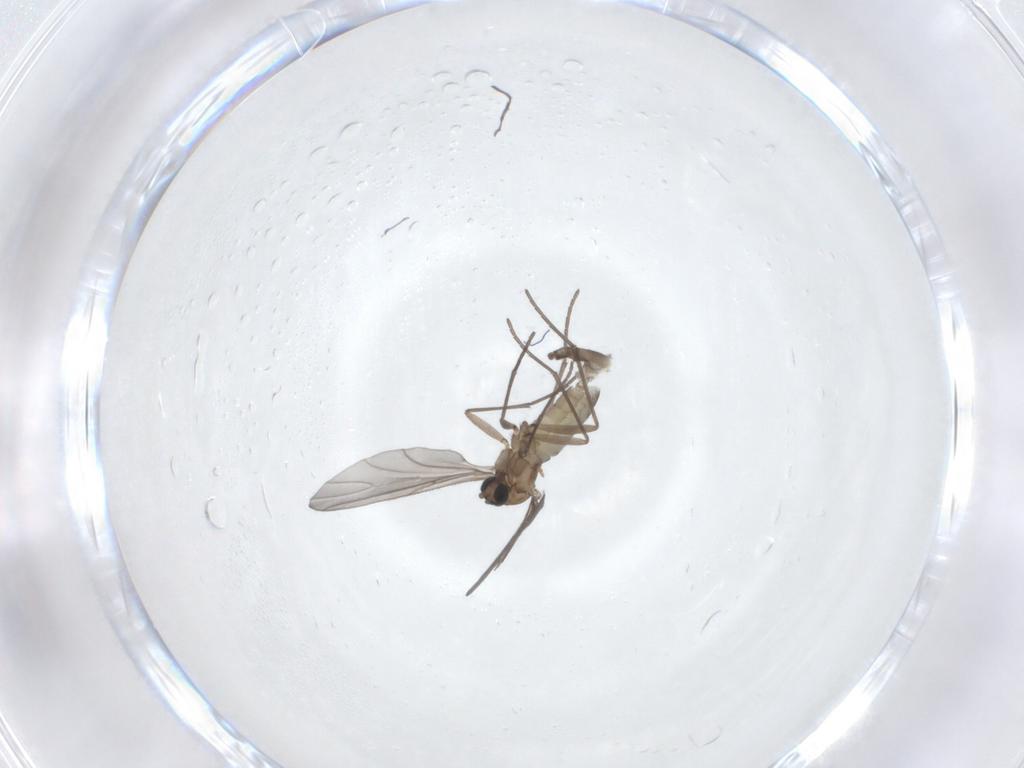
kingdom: Animalia
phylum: Arthropoda
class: Insecta
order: Diptera
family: Sciaridae
